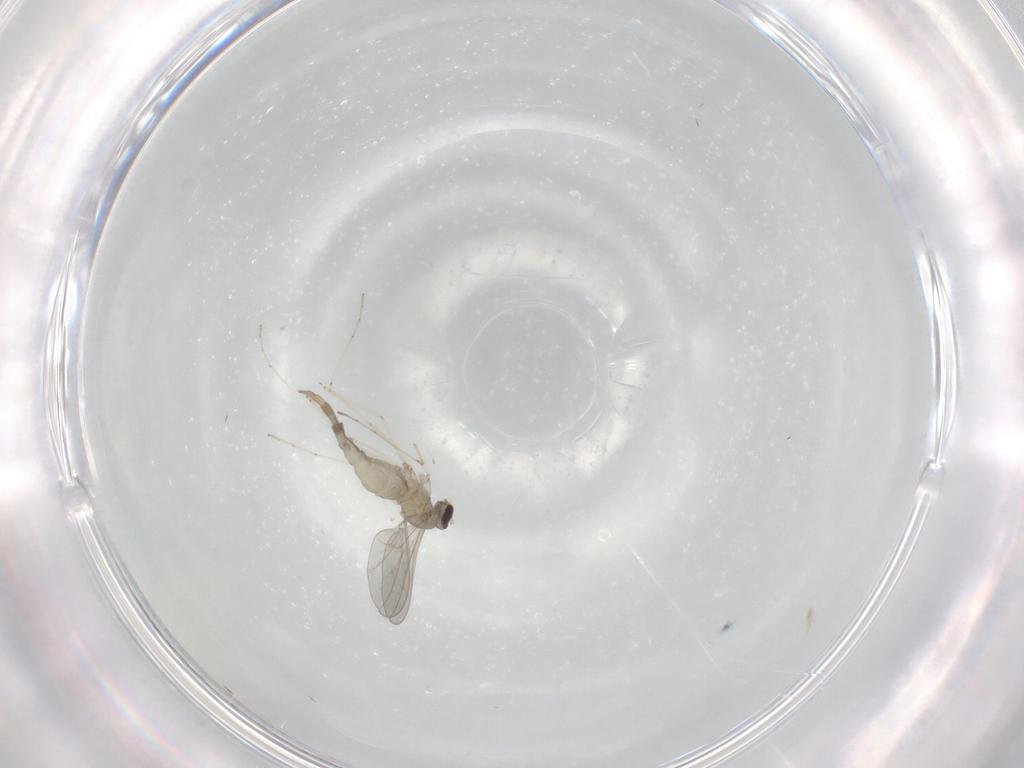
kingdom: Animalia
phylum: Arthropoda
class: Insecta
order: Diptera
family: Cecidomyiidae
